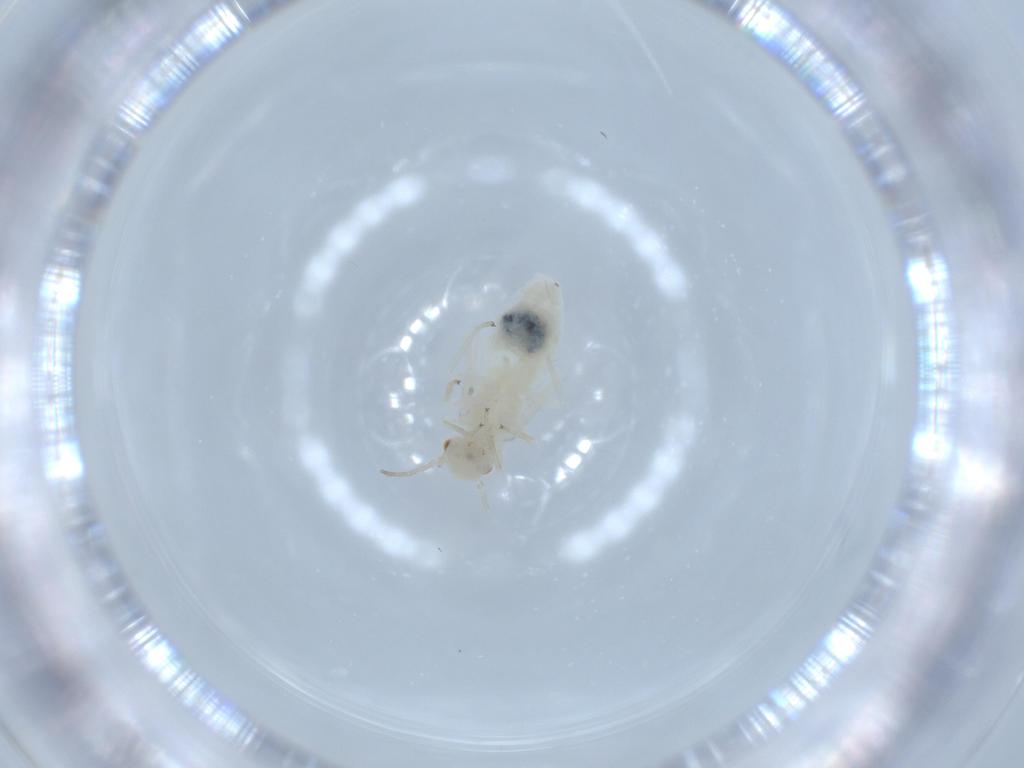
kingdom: Animalia
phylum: Arthropoda
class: Insecta
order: Psocodea
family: Caeciliusidae
